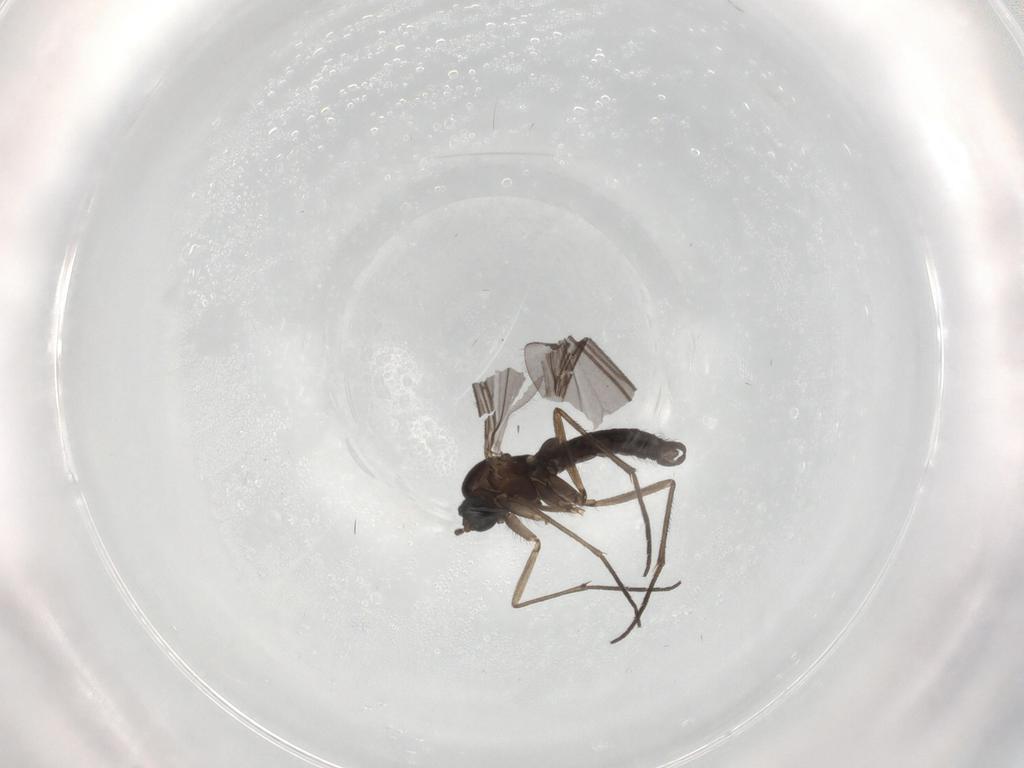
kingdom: Animalia
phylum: Arthropoda
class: Insecta
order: Diptera
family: Sciaridae
